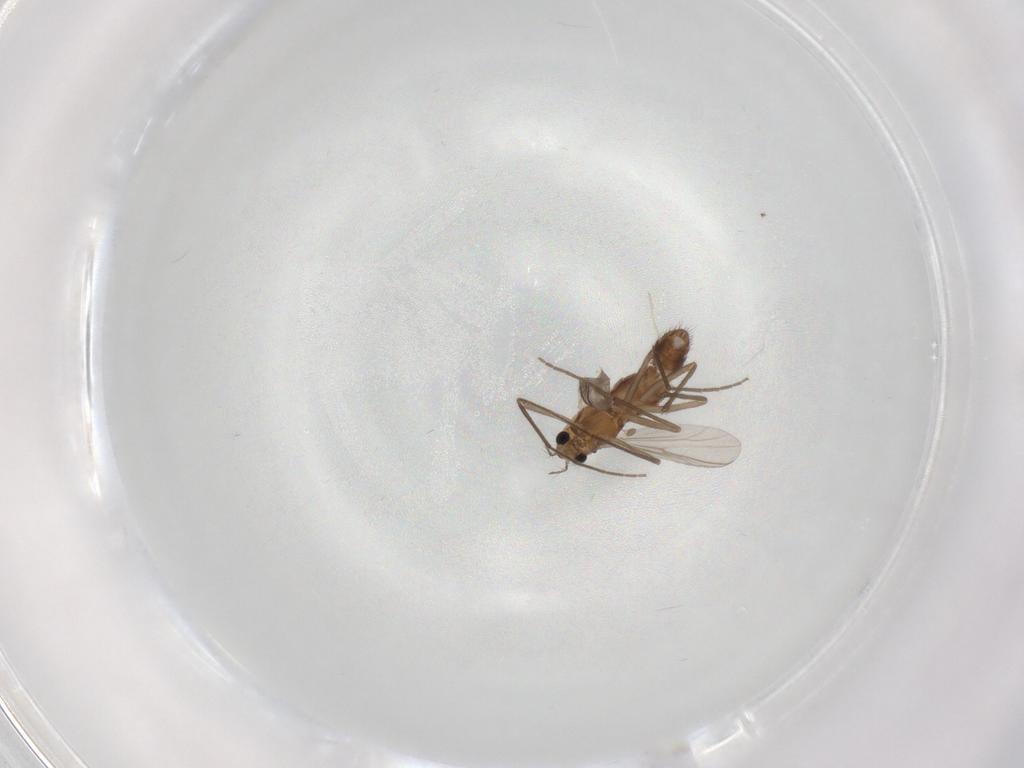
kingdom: Animalia
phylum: Arthropoda
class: Insecta
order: Diptera
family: Chironomidae
